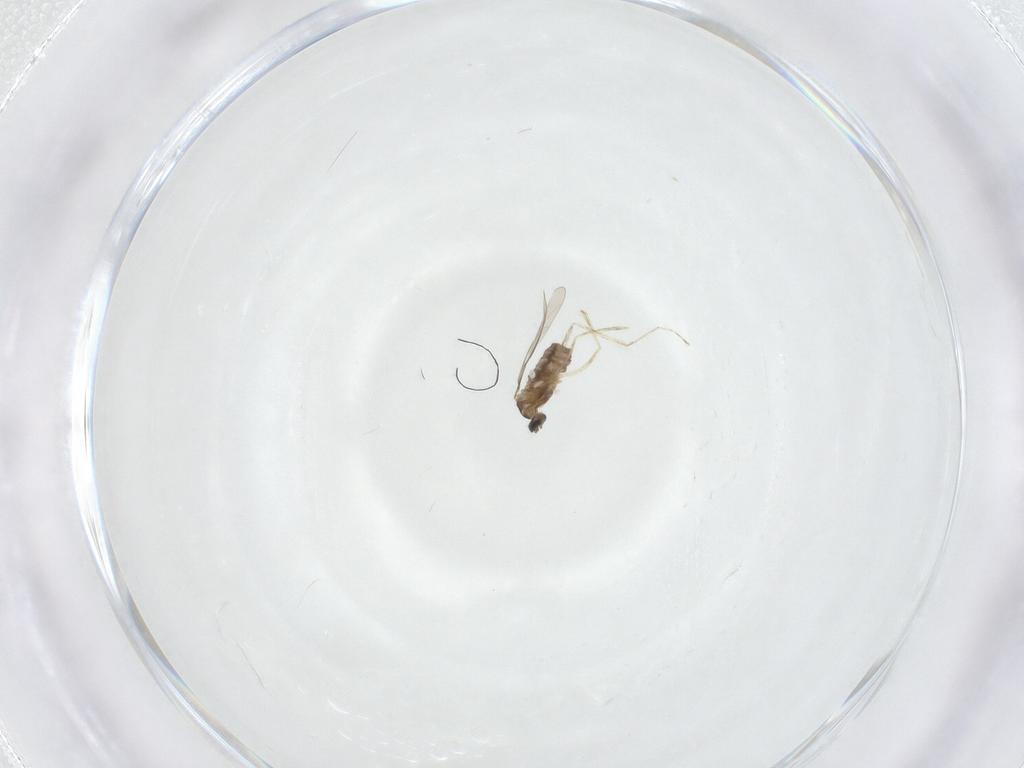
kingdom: Animalia
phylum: Arthropoda
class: Insecta
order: Diptera
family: Cecidomyiidae
